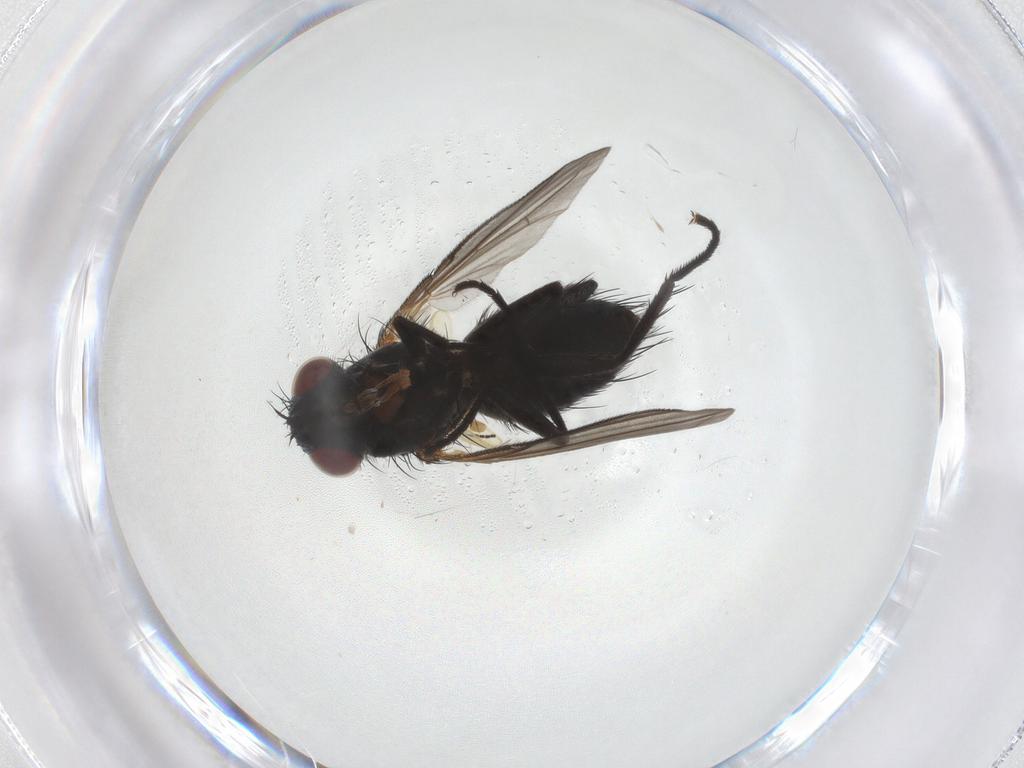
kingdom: Animalia
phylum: Arthropoda
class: Insecta
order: Diptera
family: Tachinidae
